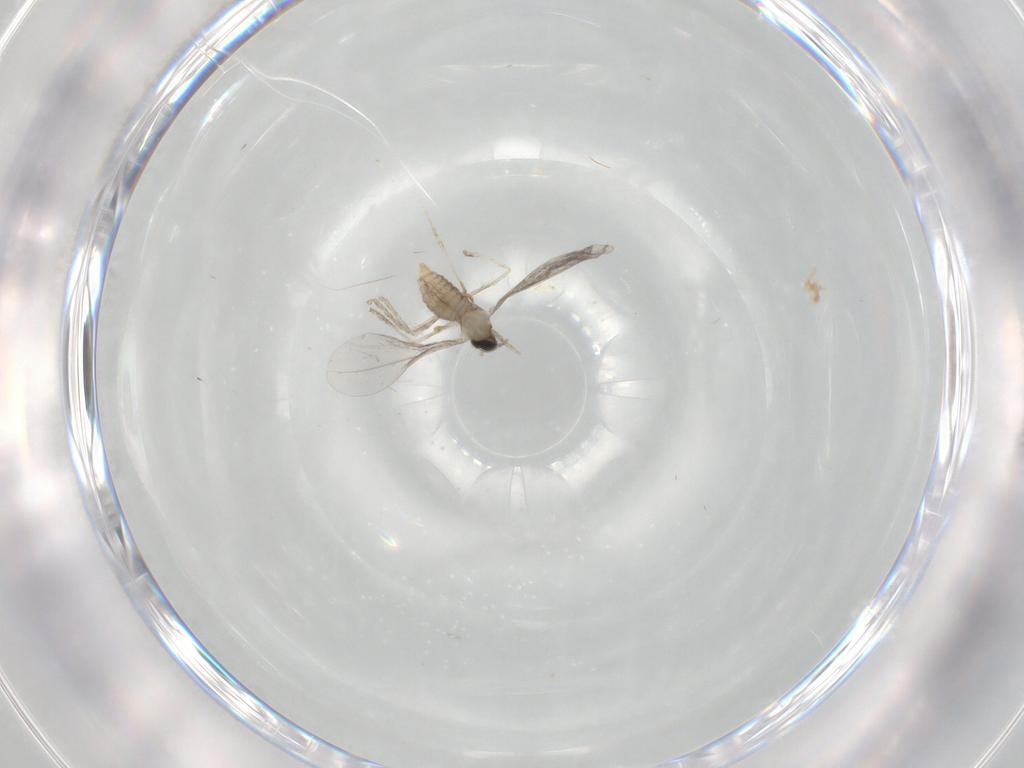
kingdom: Animalia
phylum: Arthropoda
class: Insecta
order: Diptera
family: Cecidomyiidae
